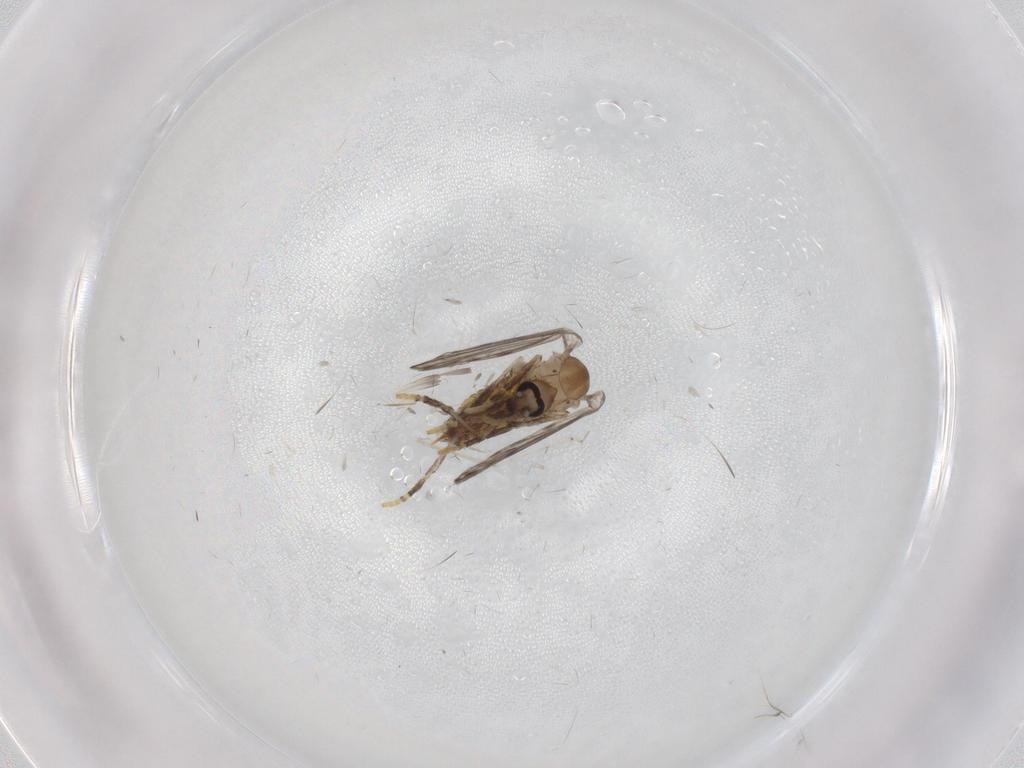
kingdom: Animalia
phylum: Arthropoda
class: Insecta
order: Diptera
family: Psychodidae
